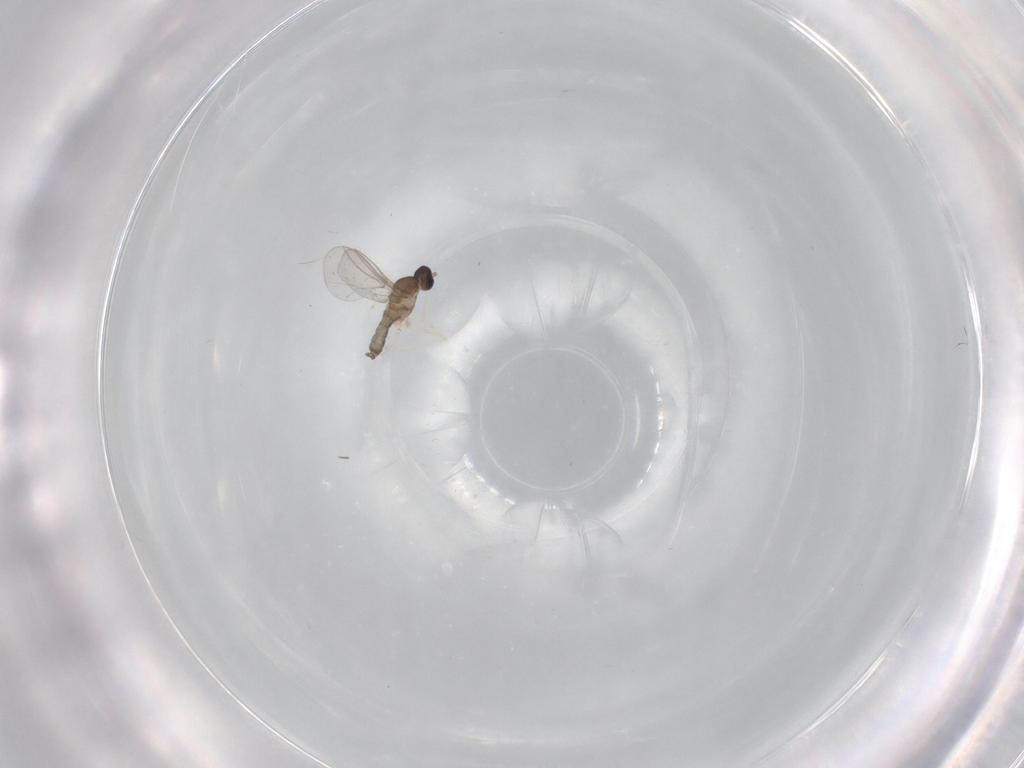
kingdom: Animalia
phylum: Arthropoda
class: Insecta
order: Diptera
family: Cecidomyiidae
